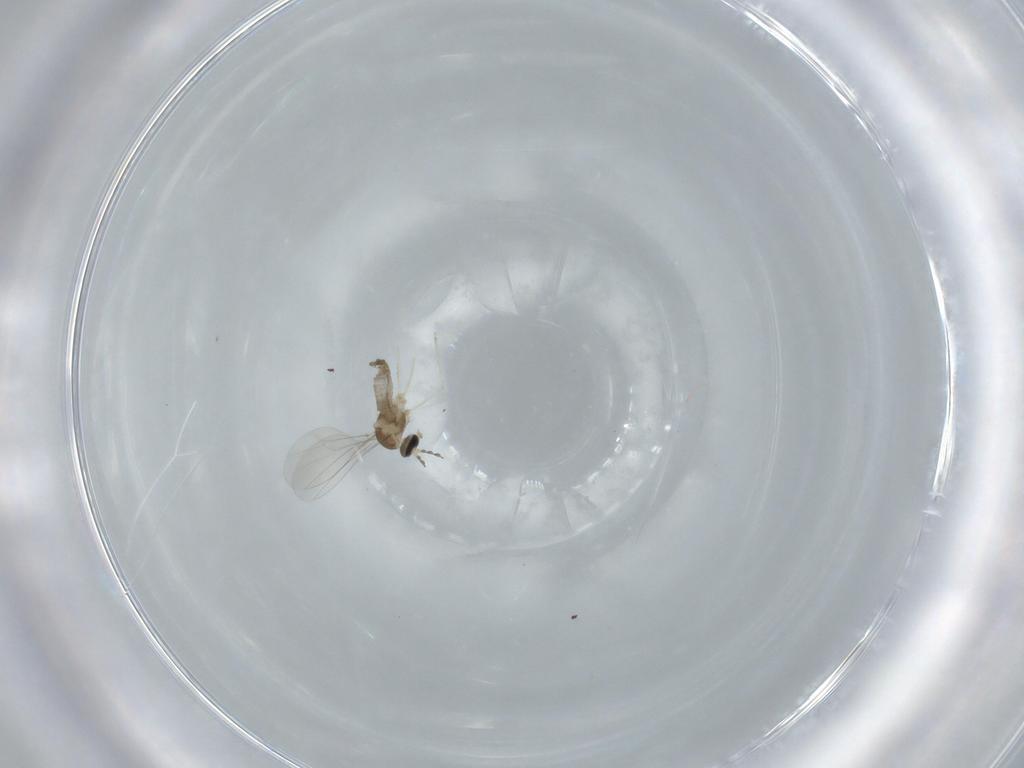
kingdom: Animalia
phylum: Arthropoda
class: Insecta
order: Diptera
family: Cecidomyiidae
